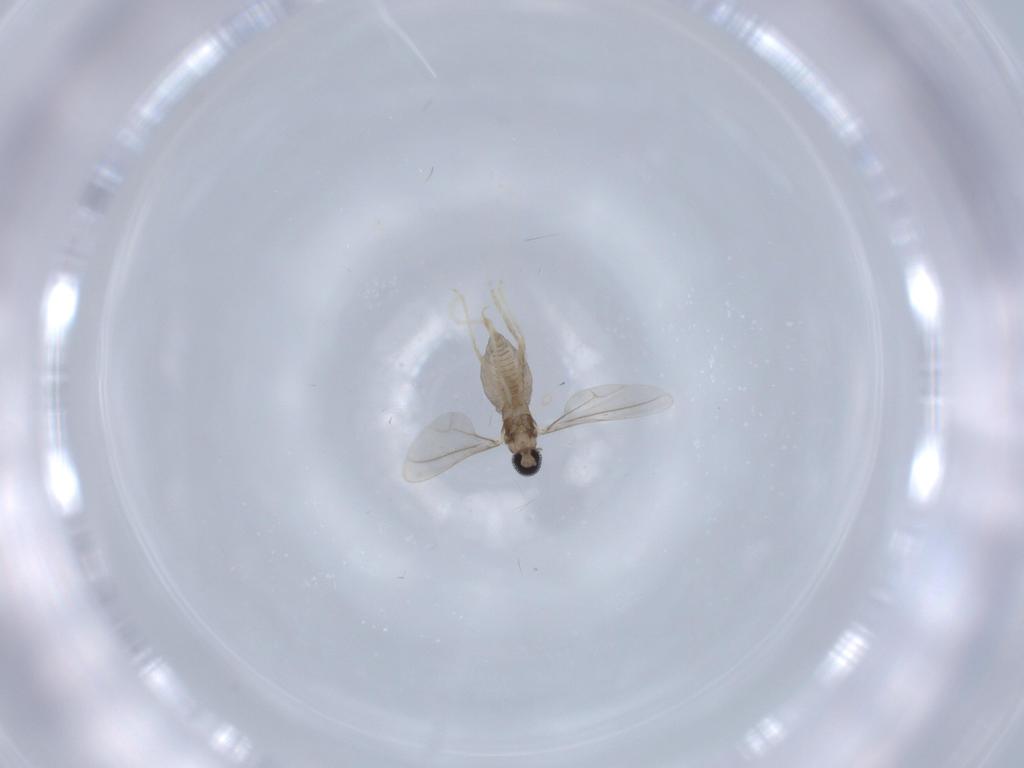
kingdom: Animalia
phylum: Arthropoda
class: Insecta
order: Diptera
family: Cecidomyiidae
